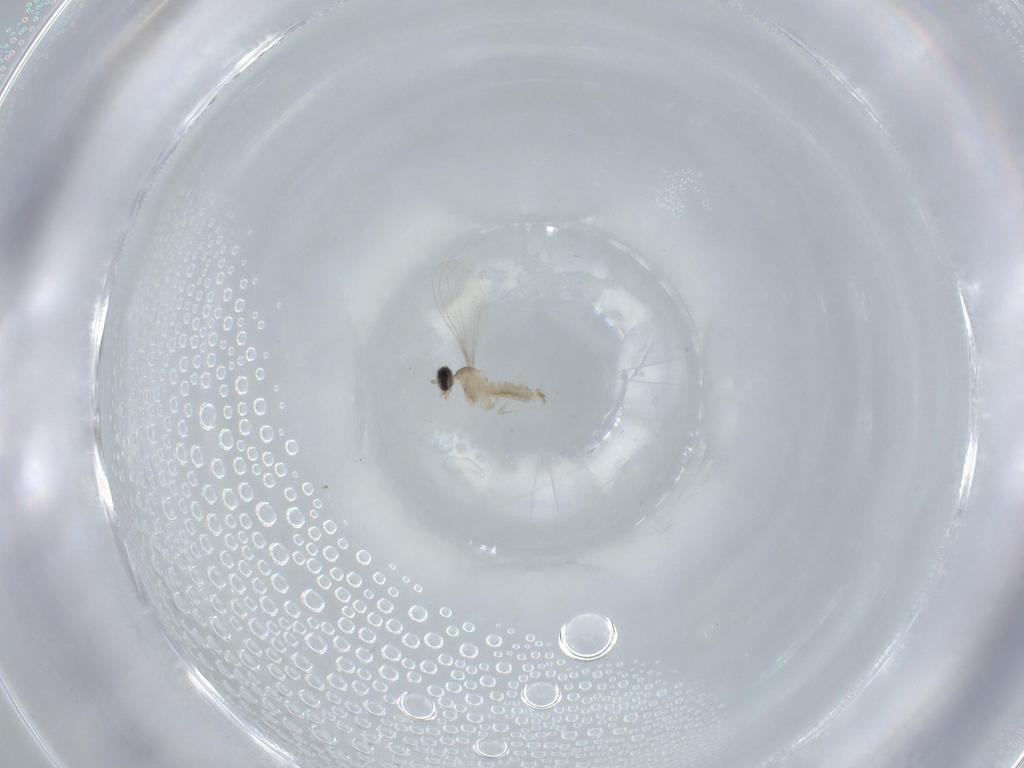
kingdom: Animalia
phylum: Arthropoda
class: Insecta
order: Diptera
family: Cecidomyiidae
